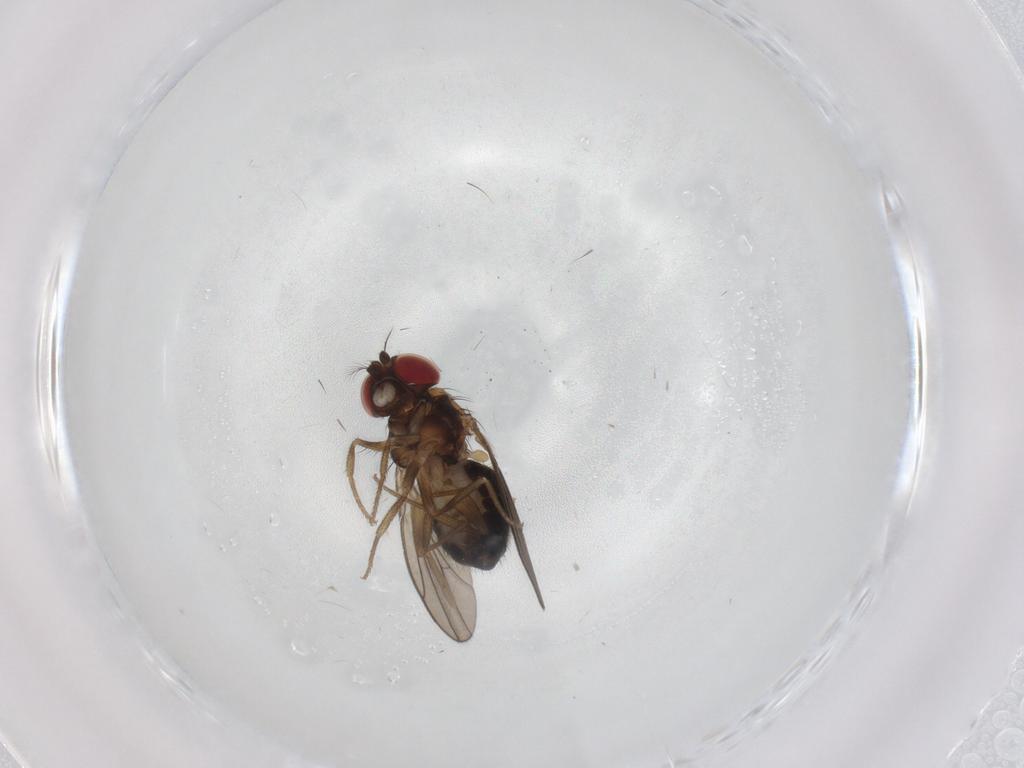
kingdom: Animalia
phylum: Arthropoda
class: Insecta
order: Diptera
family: Drosophilidae
